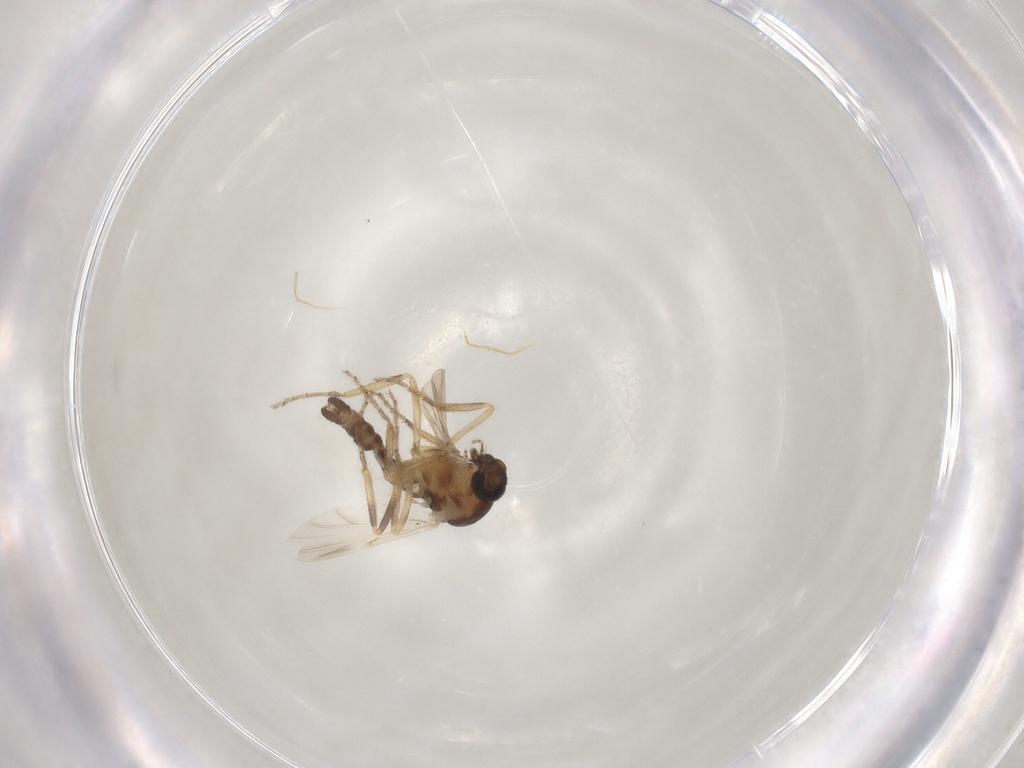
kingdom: Animalia
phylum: Arthropoda
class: Insecta
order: Diptera
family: Ceratopogonidae
